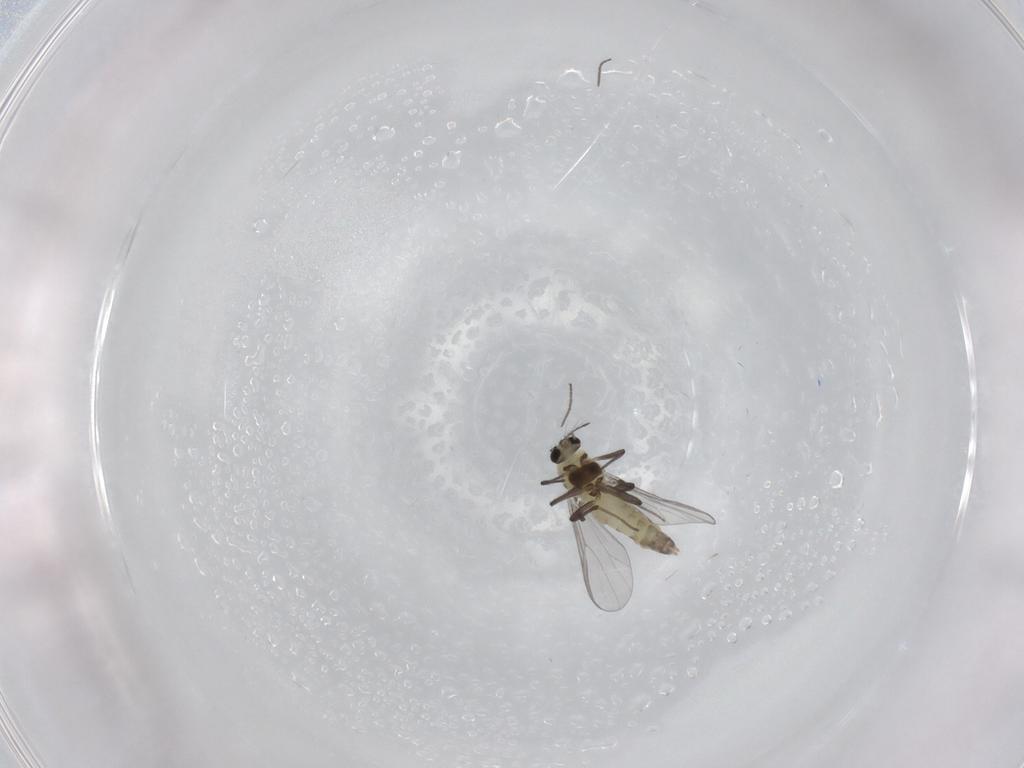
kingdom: Animalia
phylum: Arthropoda
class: Insecta
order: Diptera
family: Chironomidae
